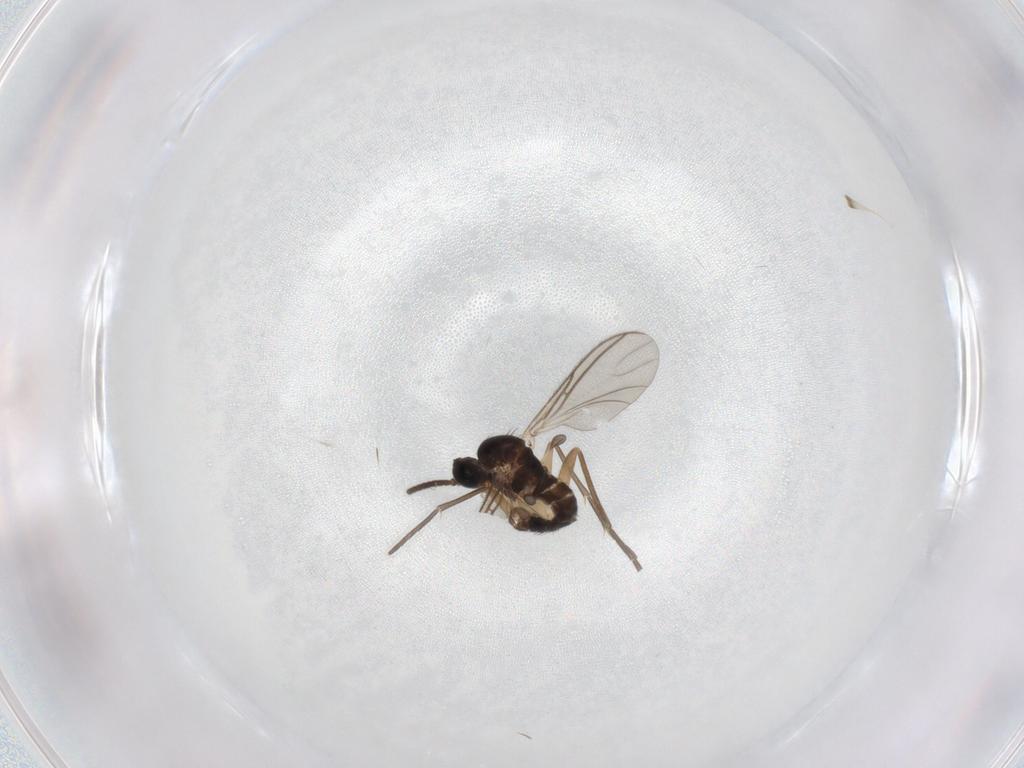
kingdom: Animalia
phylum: Arthropoda
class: Insecta
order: Diptera
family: Sciaridae
